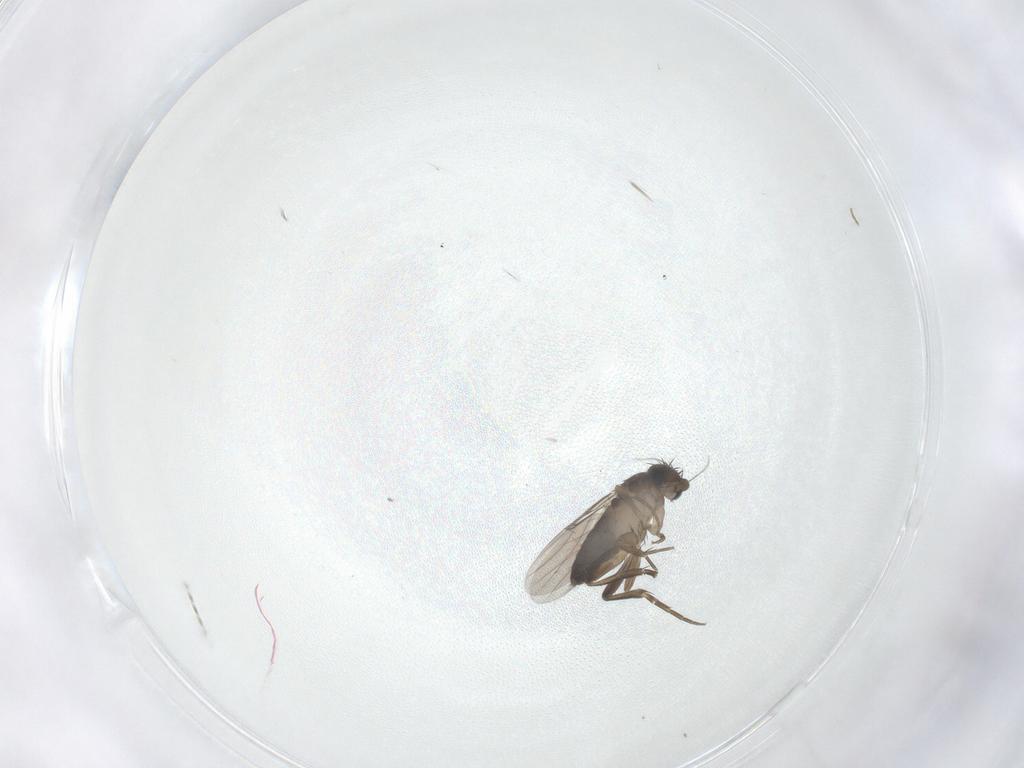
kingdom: Animalia
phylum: Arthropoda
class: Insecta
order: Diptera
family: Phoridae
